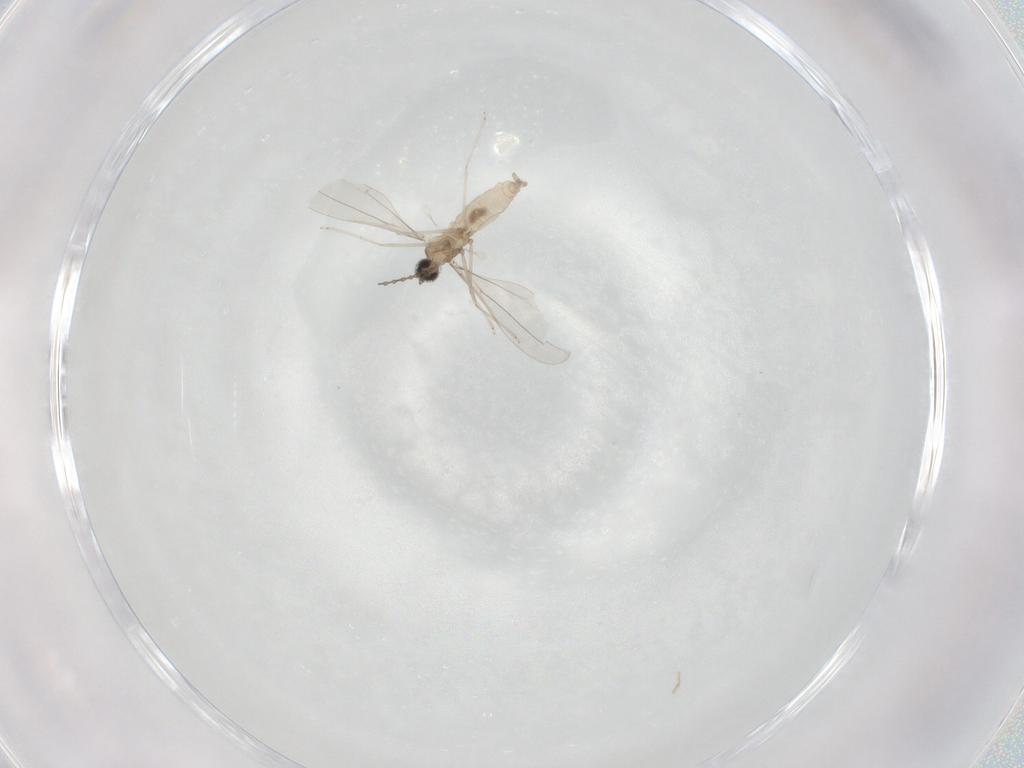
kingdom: Animalia
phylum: Arthropoda
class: Insecta
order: Diptera
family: Cecidomyiidae
